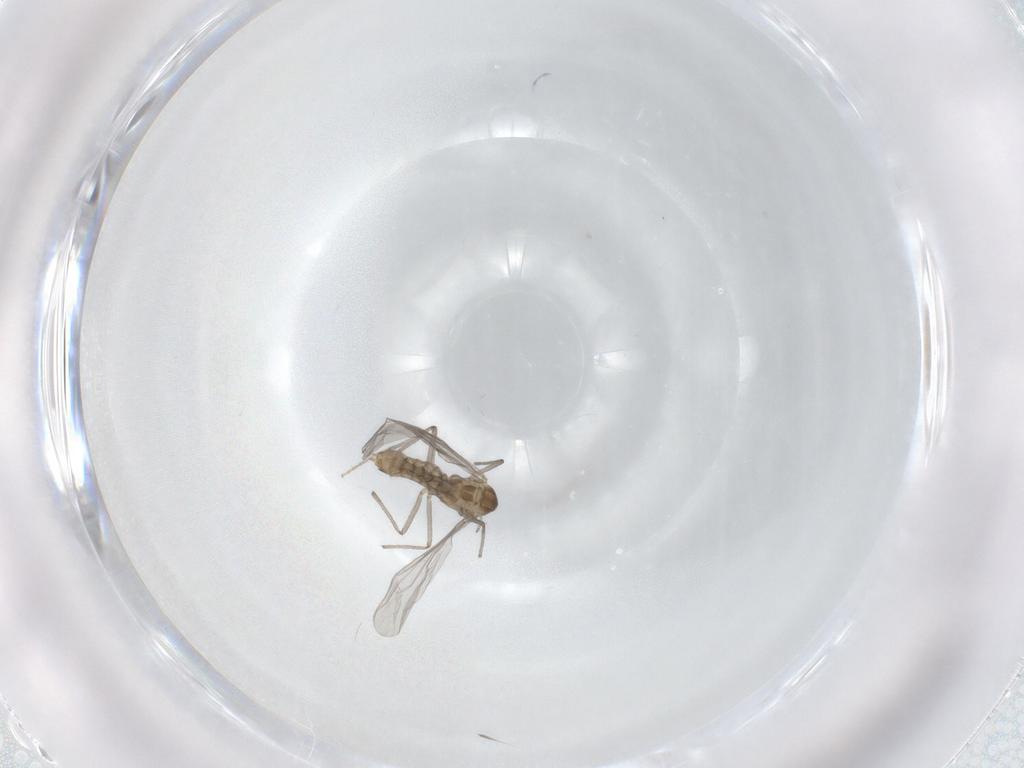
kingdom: Animalia
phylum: Arthropoda
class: Insecta
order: Diptera
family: Chironomidae
